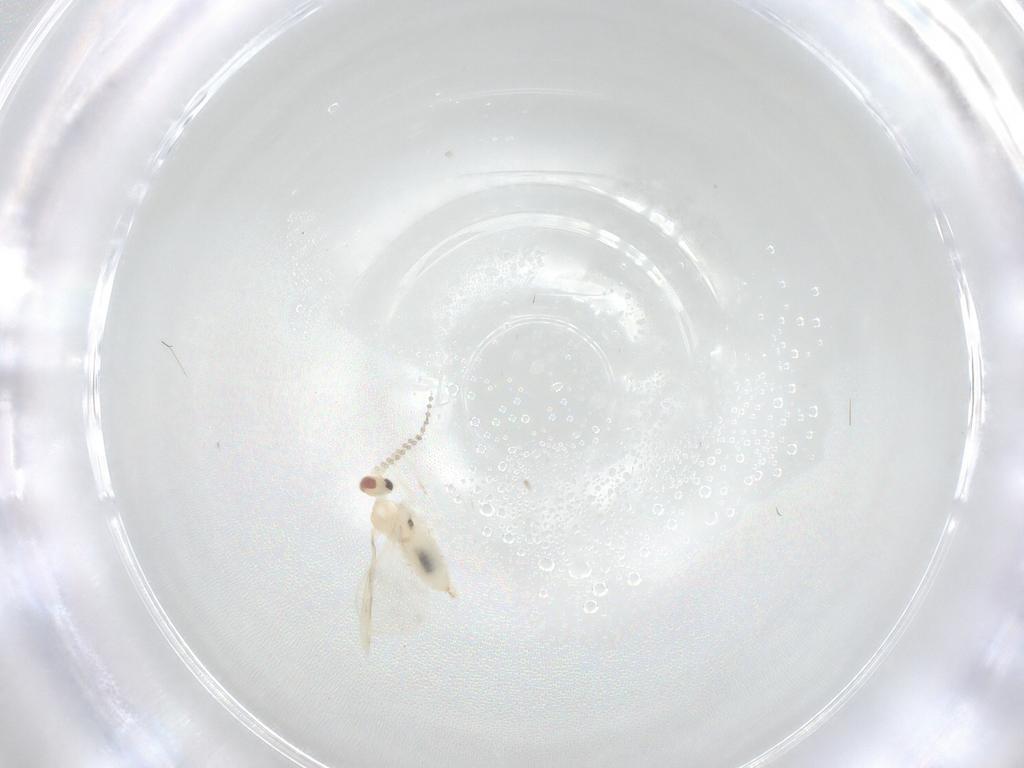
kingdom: Animalia
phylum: Arthropoda
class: Insecta
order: Diptera
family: Cecidomyiidae
